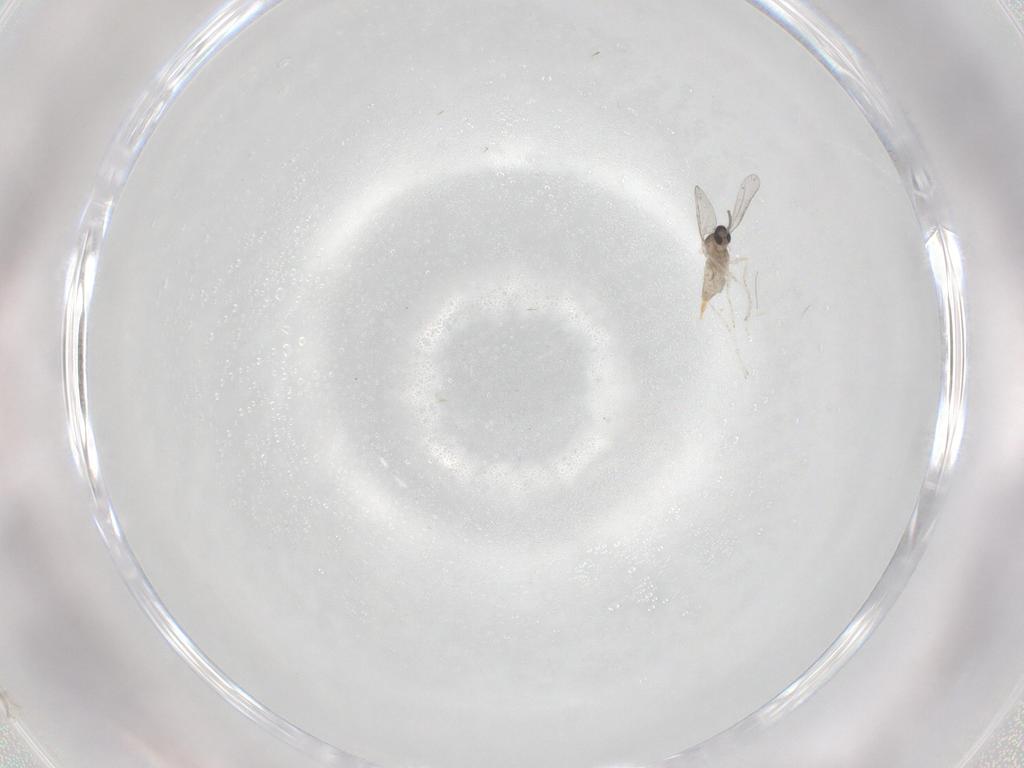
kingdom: Animalia
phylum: Arthropoda
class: Insecta
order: Diptera
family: Cecidomyiidae
